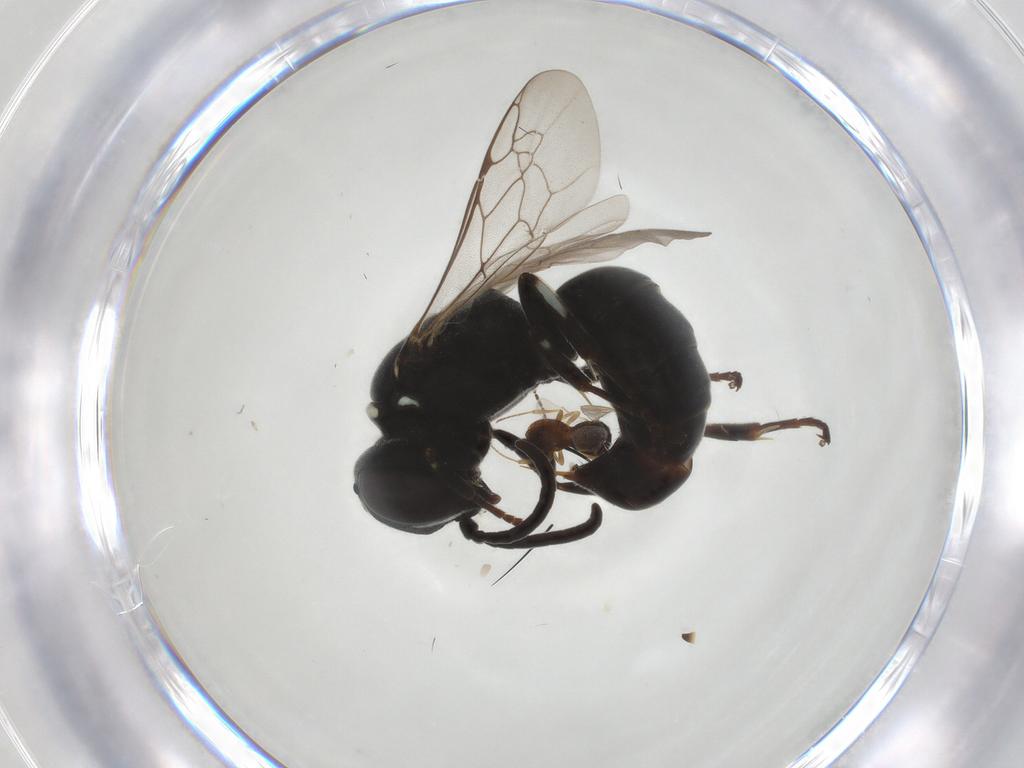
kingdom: Animalia
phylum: Arthropoda
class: Insecta
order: Hymenoptera
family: Crabronidae
